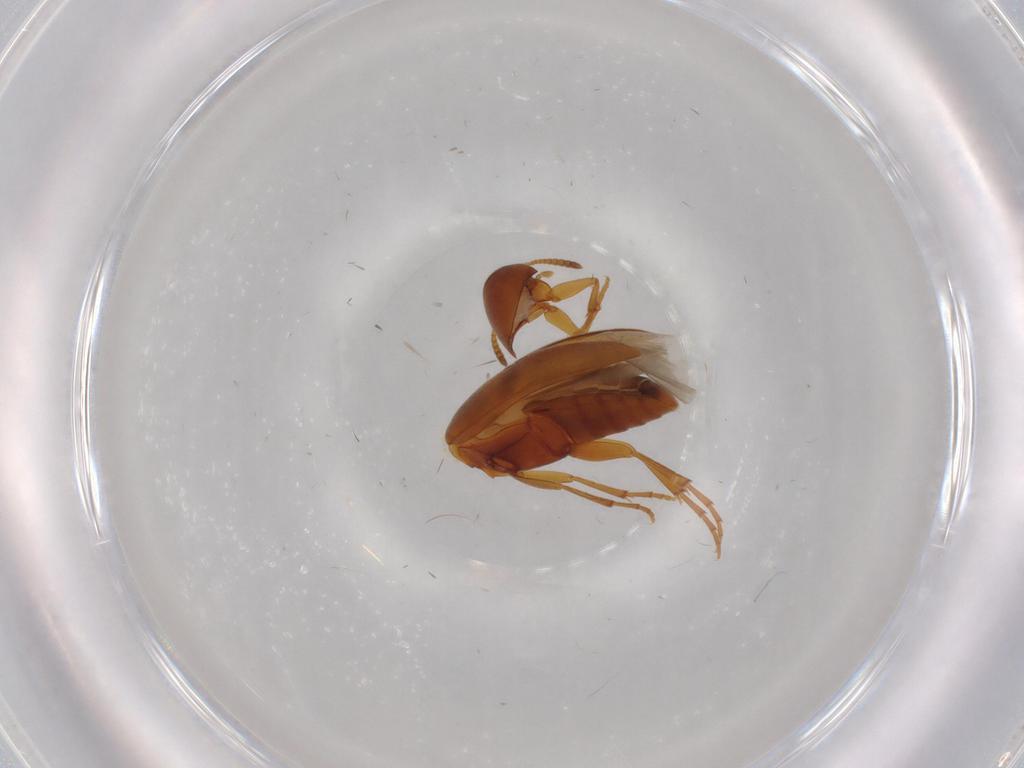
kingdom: Animalia
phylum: Arthropoda
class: Insecta
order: Coleoptera
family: Scraptiidae
